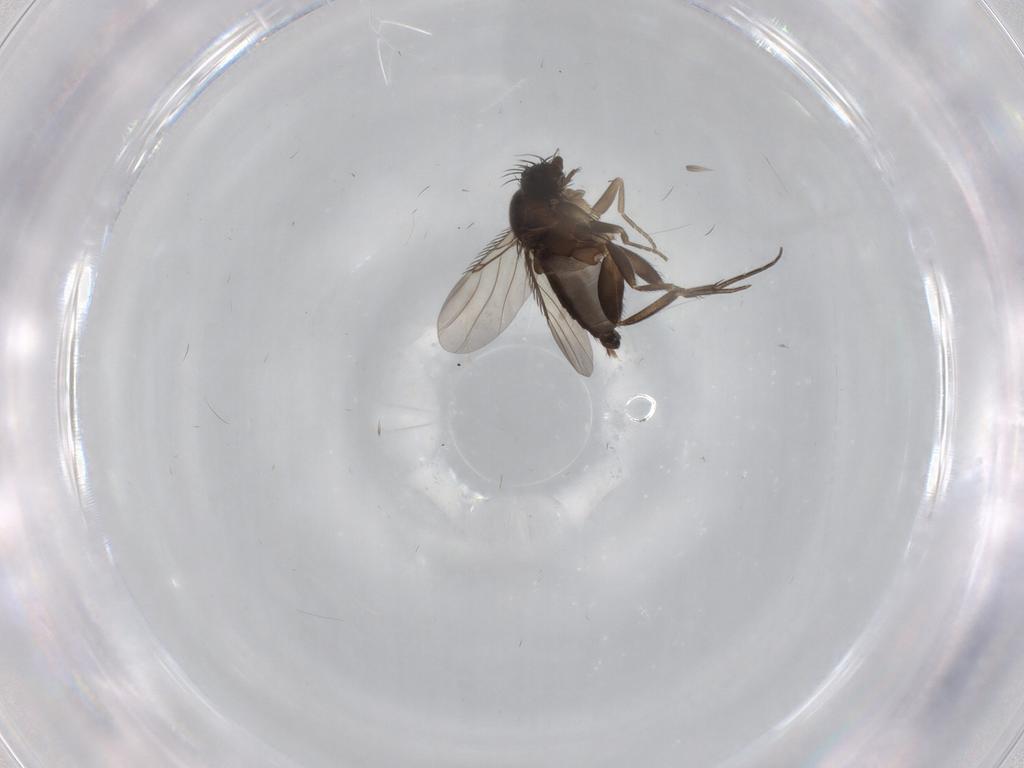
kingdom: Animalia
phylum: Arthropoda
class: Insecta
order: Diptera
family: Phoridae
